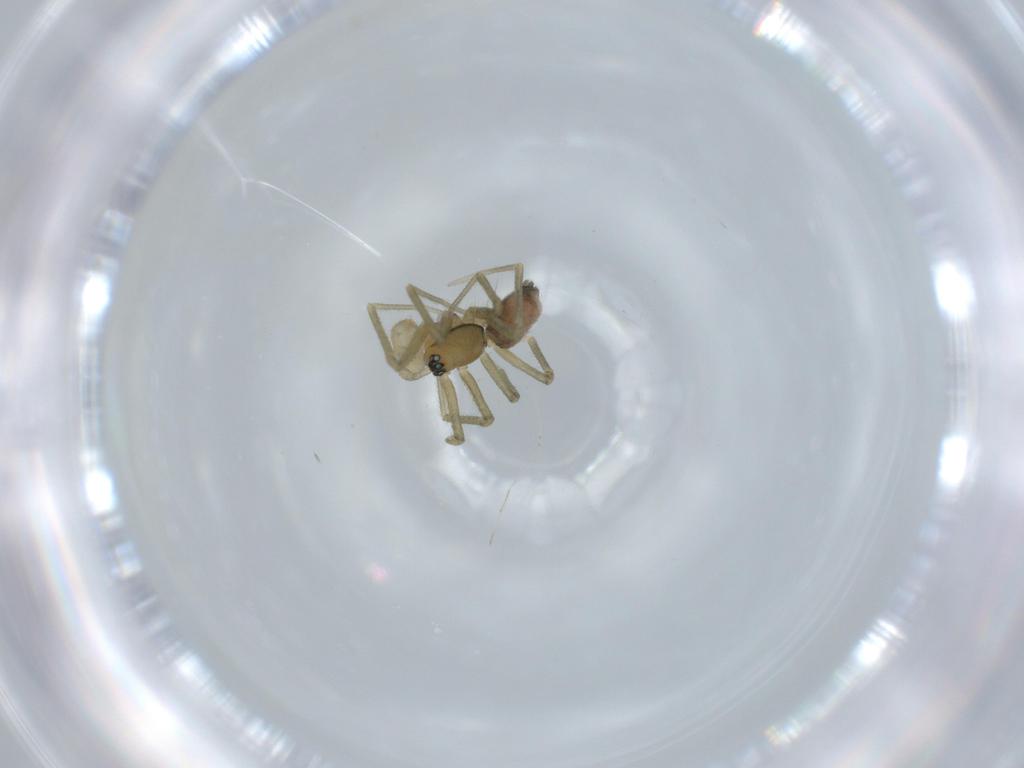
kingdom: Animalia
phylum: Arthropoda
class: Arachnida
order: Araneae
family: Linyphiidae
